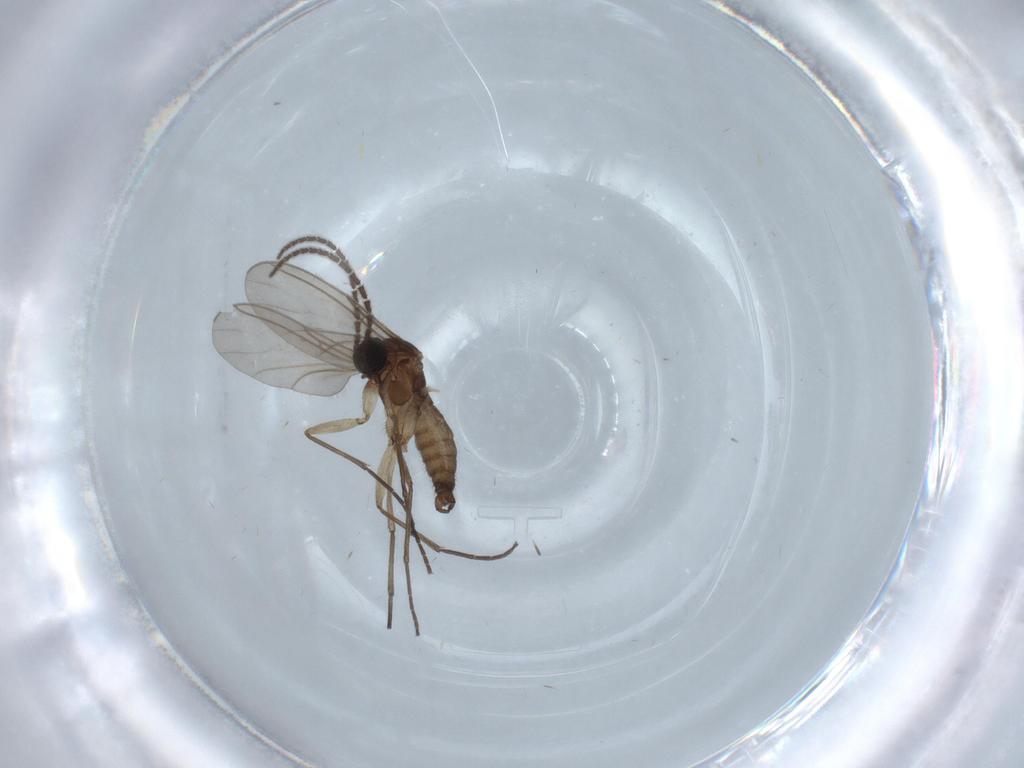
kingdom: Animalia
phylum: Arthropoda
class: Insecta
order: Diptera
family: Sciaridae
